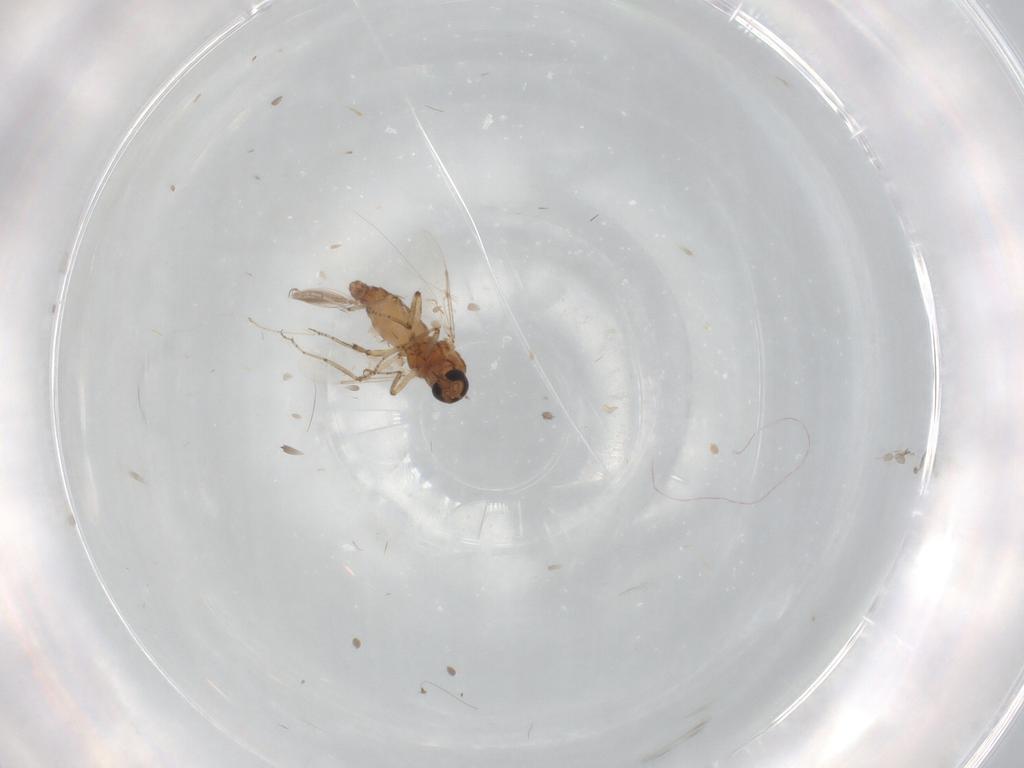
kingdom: Animalia
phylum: Arthropoda
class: Insecta
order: Diptera
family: Ceratopogonidae
